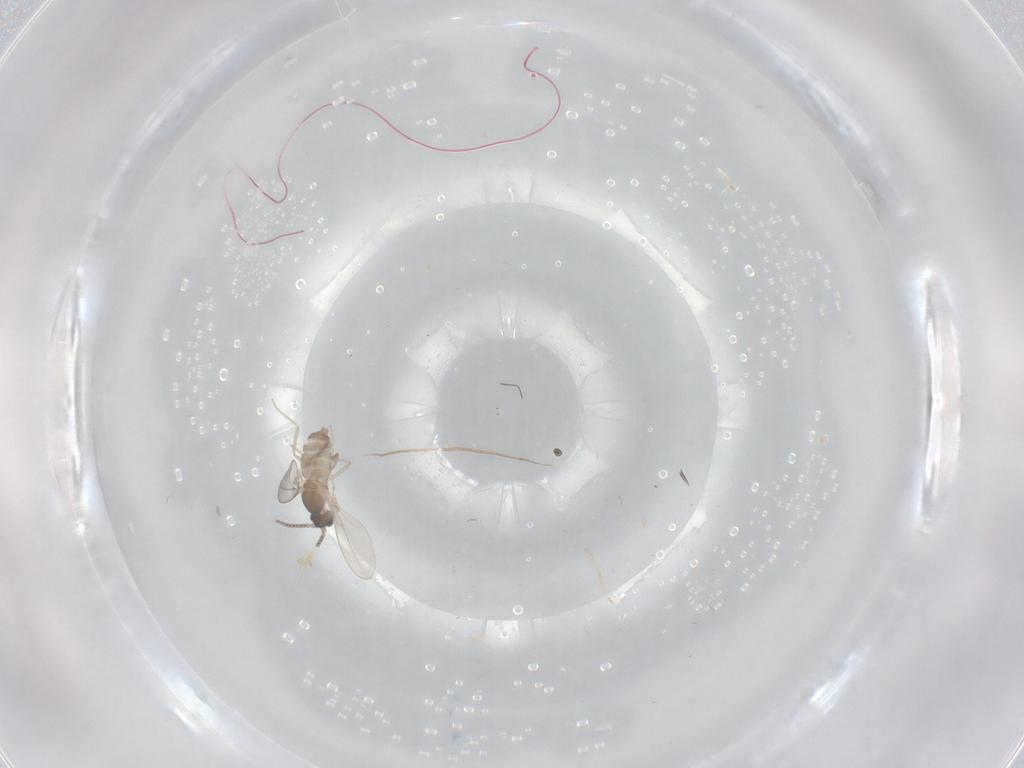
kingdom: Animalia
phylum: Arthropoda
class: Insecta
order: Diptera
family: Cecidomyiidae
